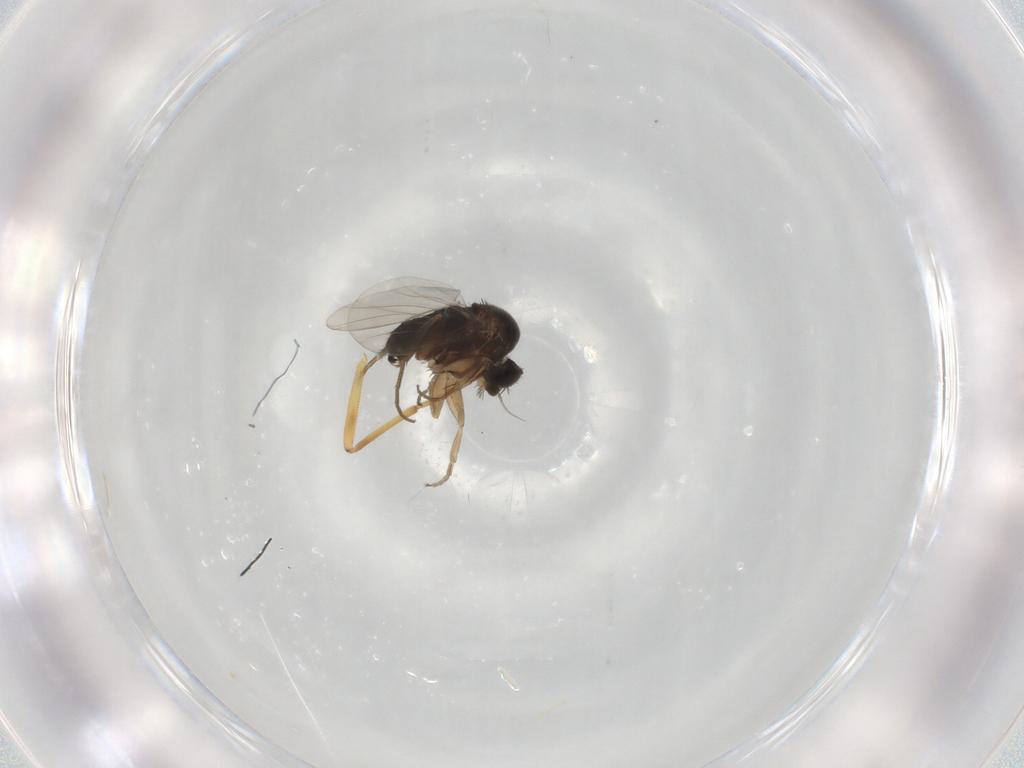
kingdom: Animalia
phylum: Arthropoda
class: Insecta
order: Diptera
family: Hybotidae
